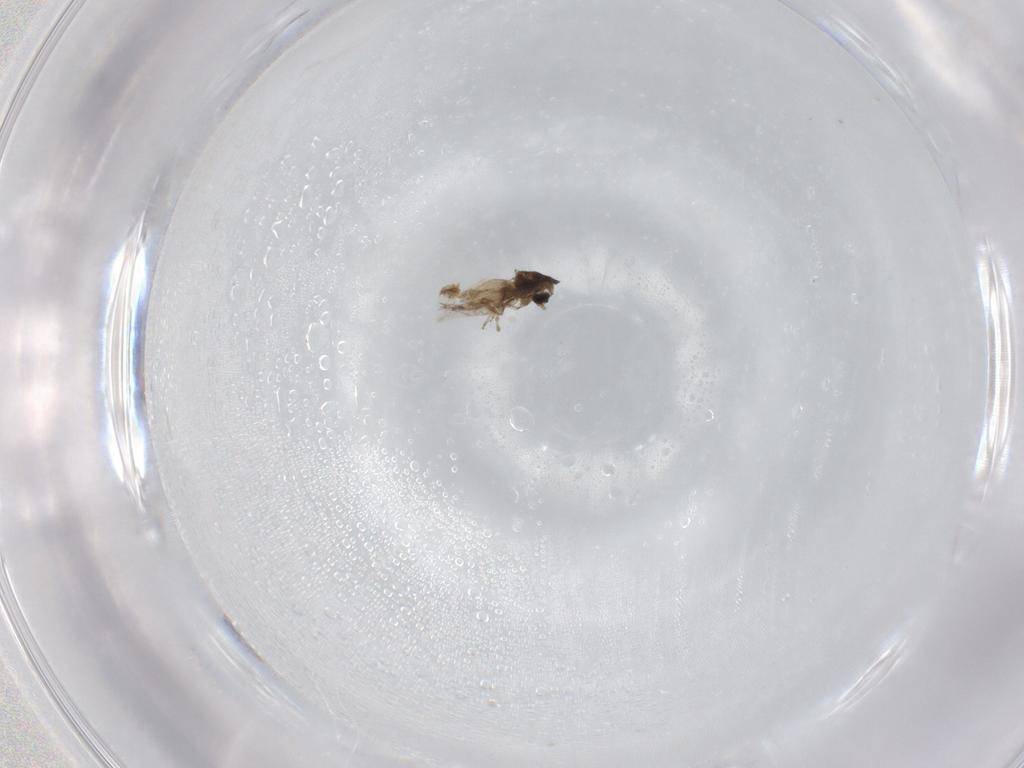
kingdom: Animalia
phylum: Arthropoda
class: Insecta
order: Diptera
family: Cecidomyiidae
